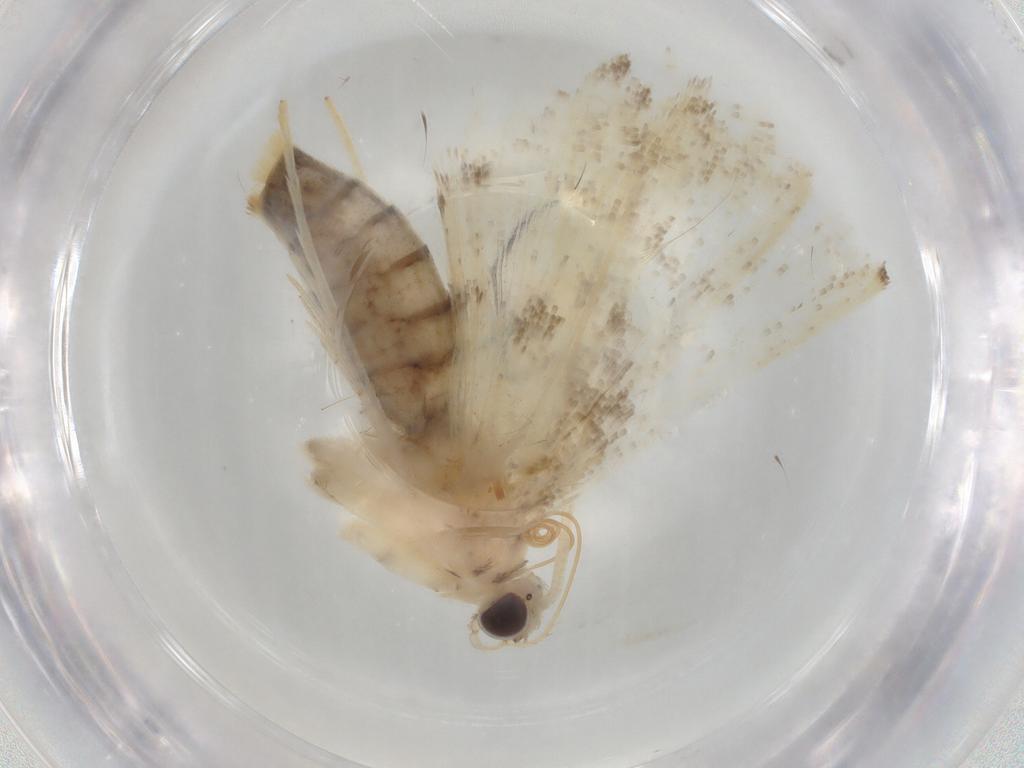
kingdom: Animalia
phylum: Arthropoda
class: Insecta
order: Lepidoptera
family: Crambidae
